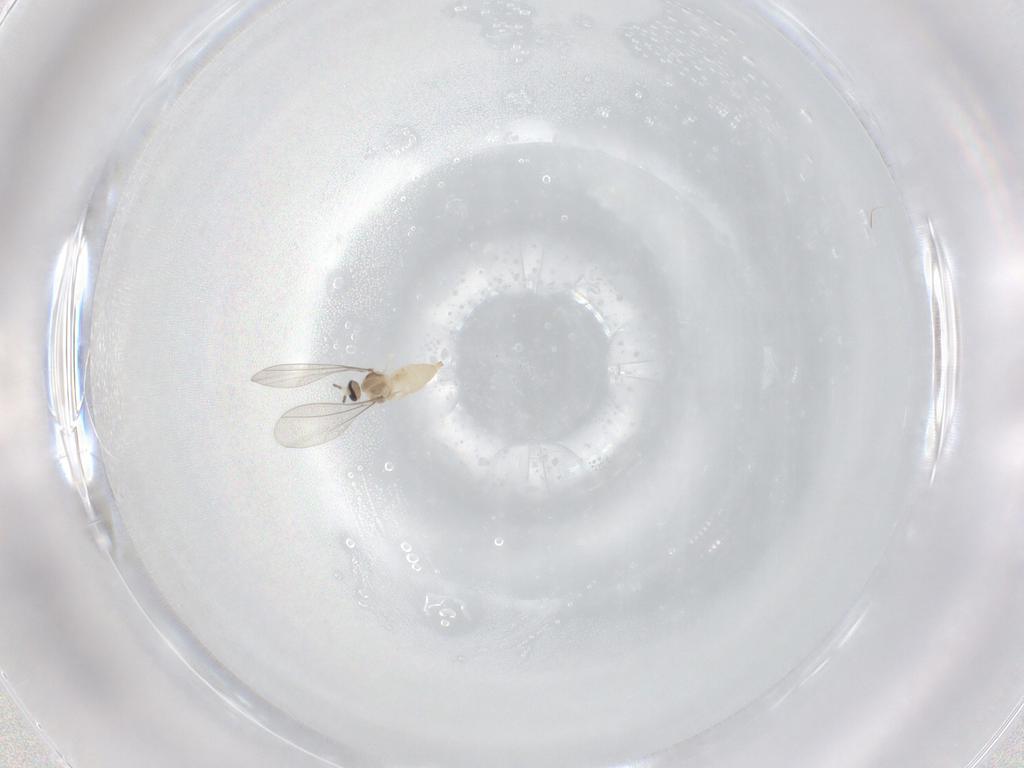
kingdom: Animalia
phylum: Arthropoda
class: Insecta
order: Diptera
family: Cecidomyiidae
